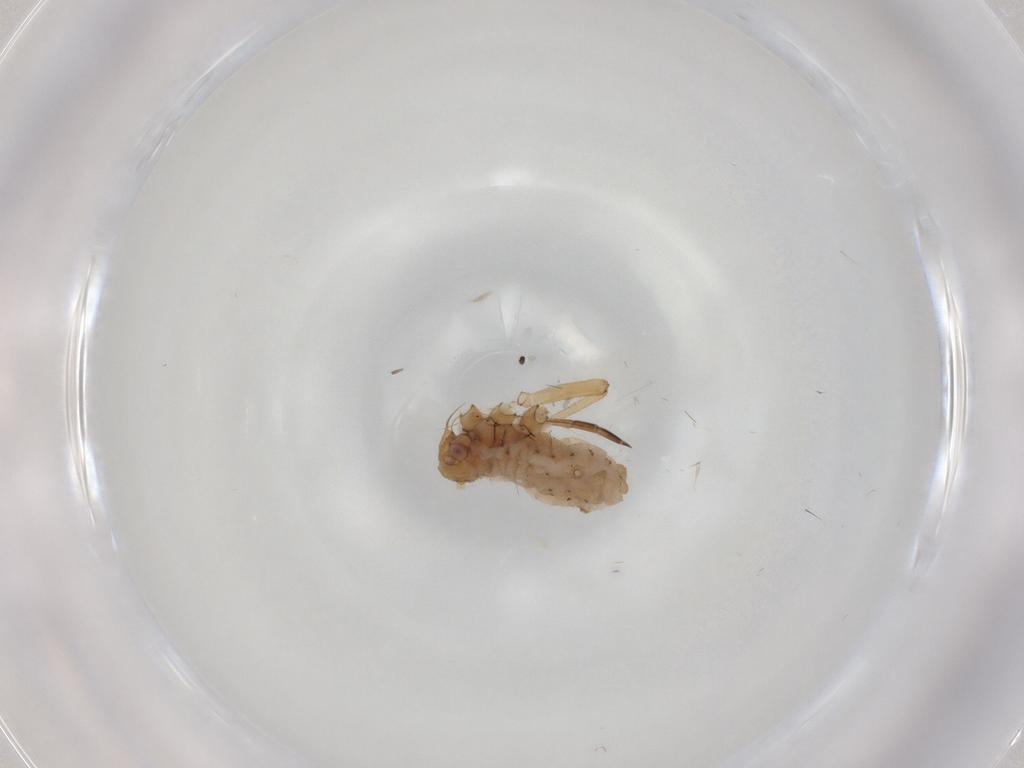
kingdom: Animalia
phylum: Arthropoda
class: Insecta
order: Hemiptera
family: Aphididae
